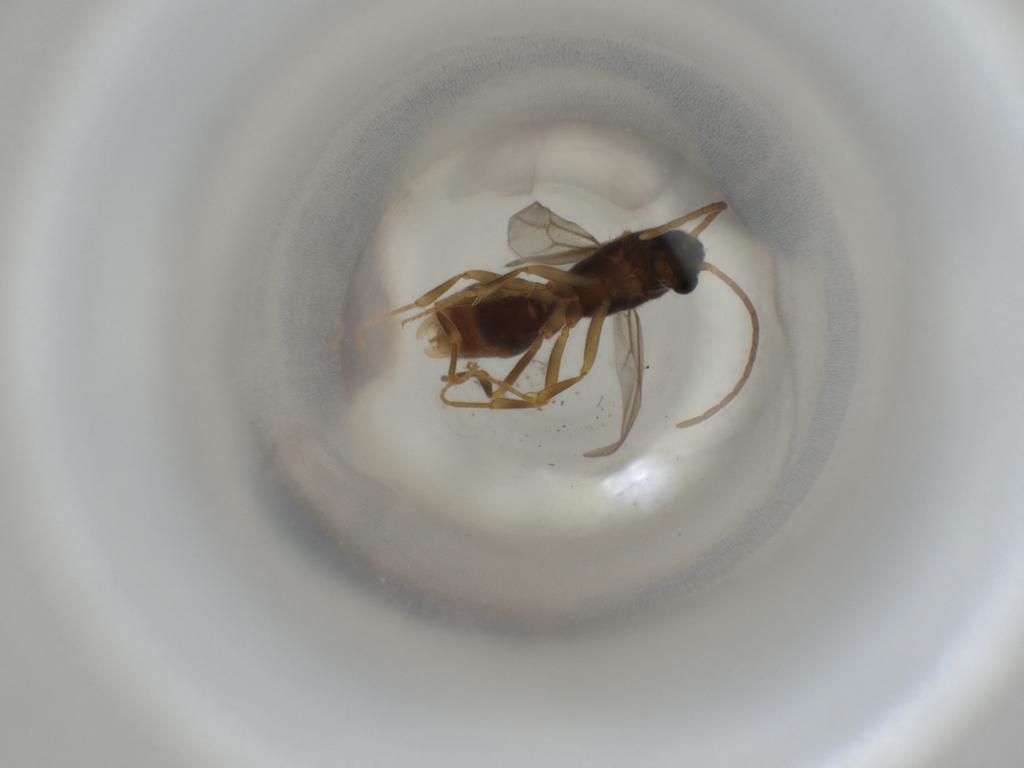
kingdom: Animalia
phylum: Arthropoda
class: Insecta
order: Hymenoptera
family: Formicidae
